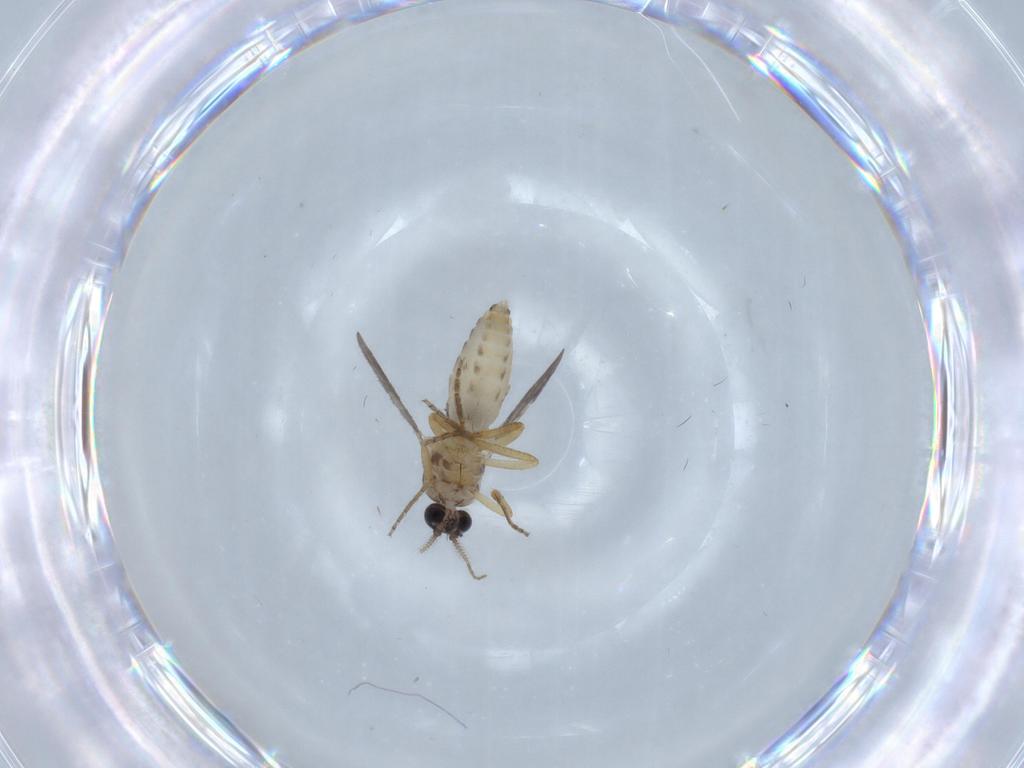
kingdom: Animalia
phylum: Arthropoda
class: Insecta
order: Diptera
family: Ceratopogonidae
